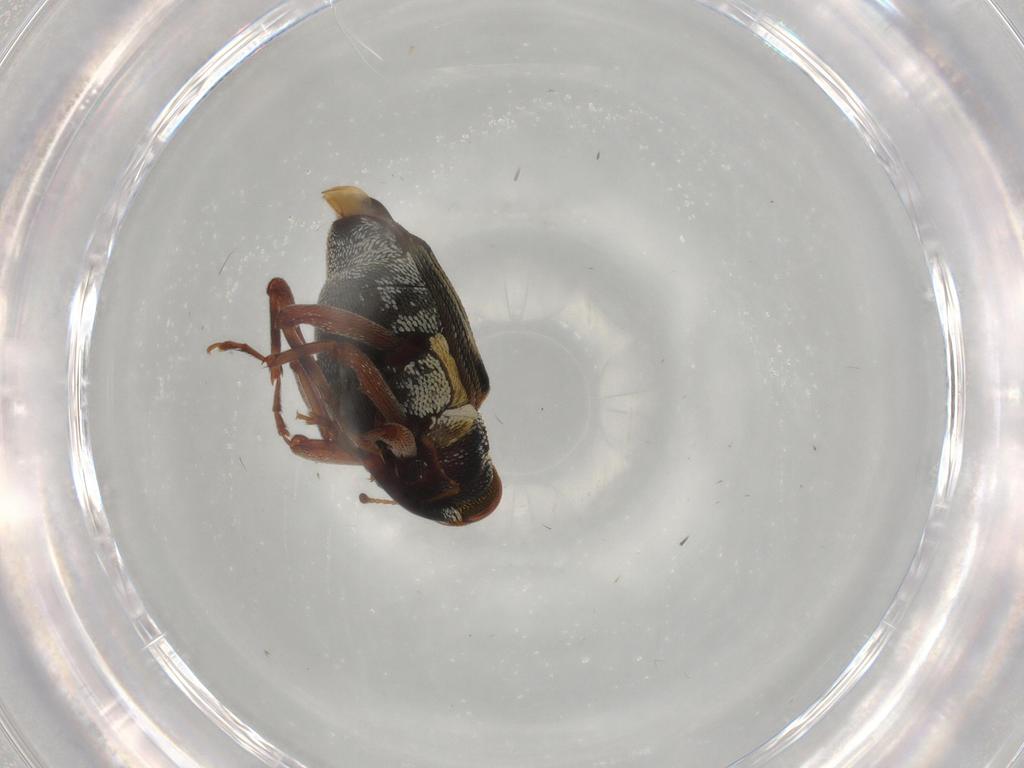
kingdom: Animalia
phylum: Arthropoda
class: Insecta
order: Coleoptera
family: Curculionidae
